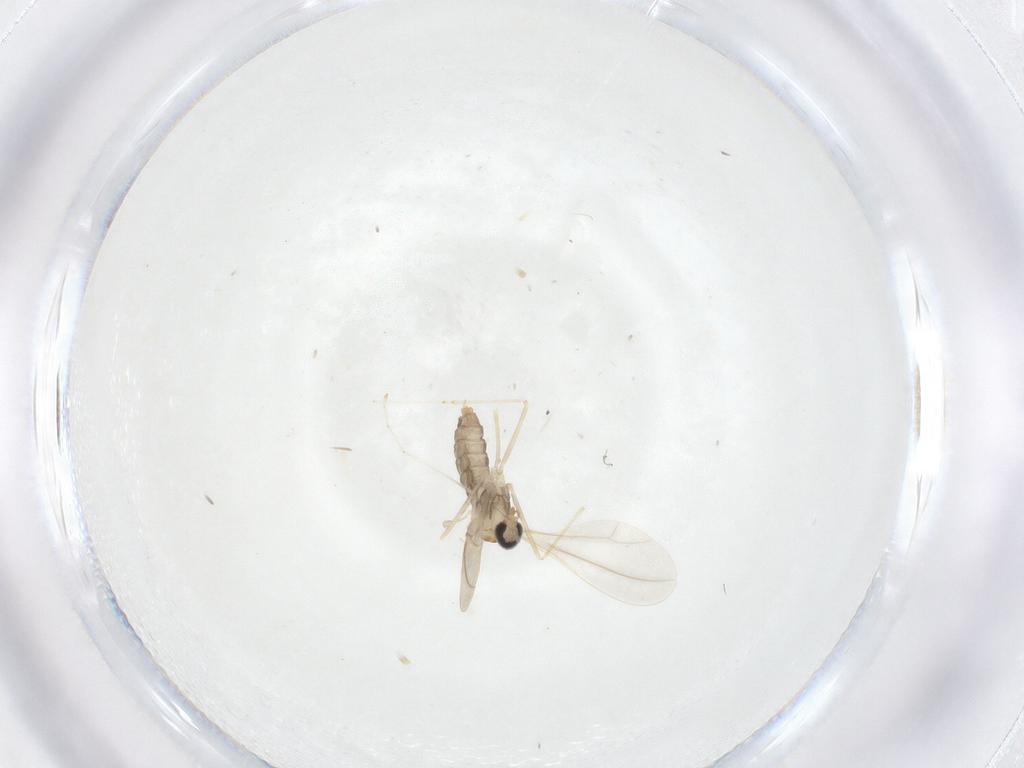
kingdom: Animalia
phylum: Arthropoda
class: Insecta
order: Diptera
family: Cecidomyiidae
